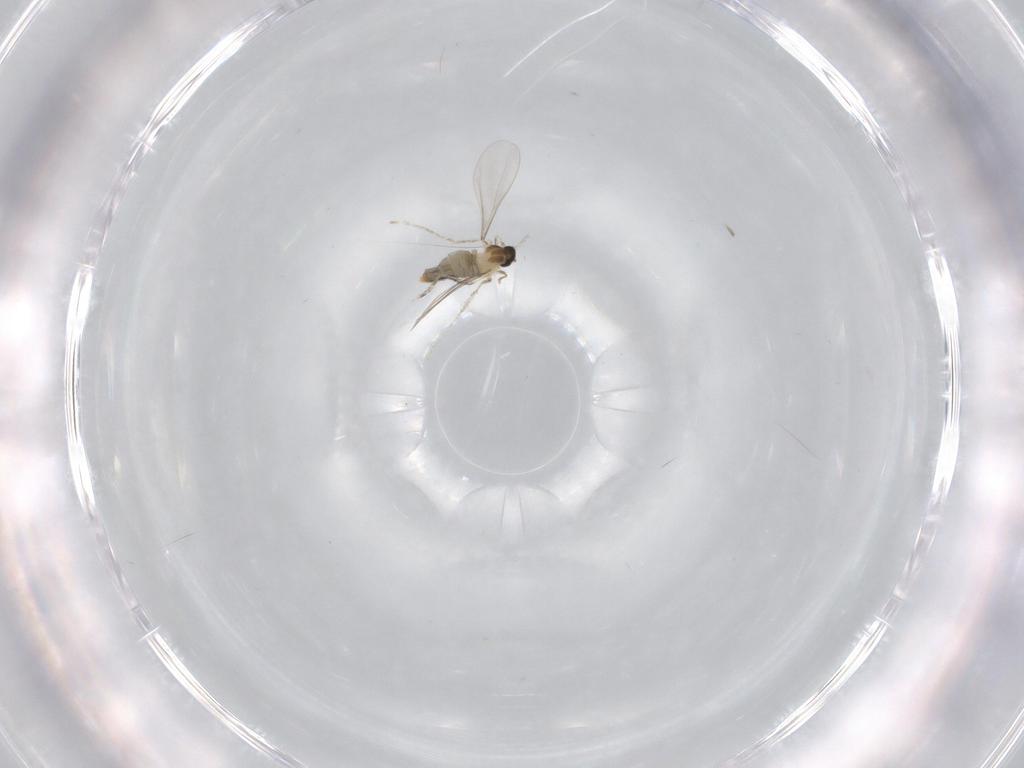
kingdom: Animalia
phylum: Arthropoda
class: Insecta
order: Diptera
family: Cecidomyiidae
